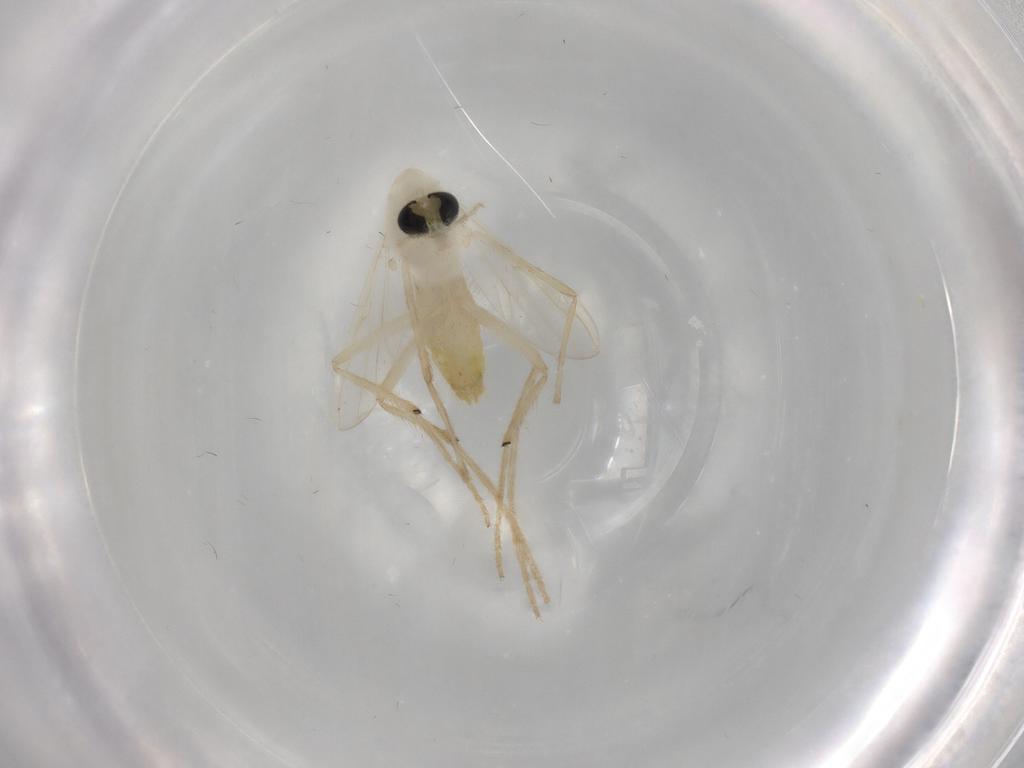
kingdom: Animalia
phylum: Arthropoda
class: Insecta
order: Diptera
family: Chironomidae
